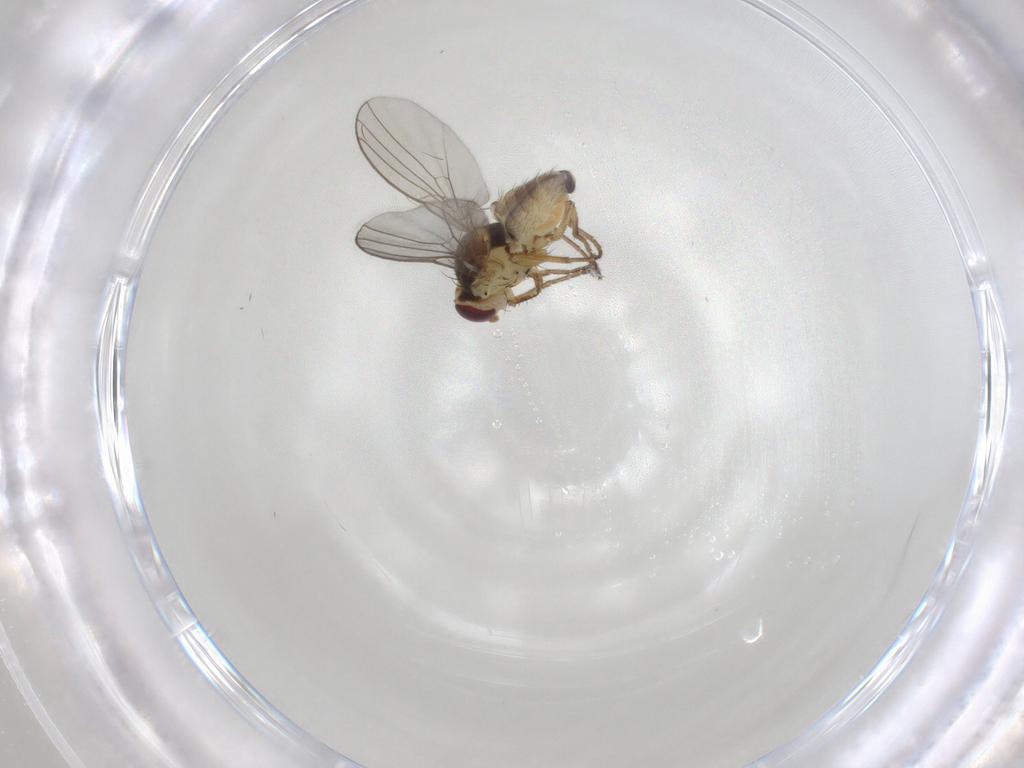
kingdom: Animalia
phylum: Arthropoda
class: Insecta
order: Diptera
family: Agromyzidae
